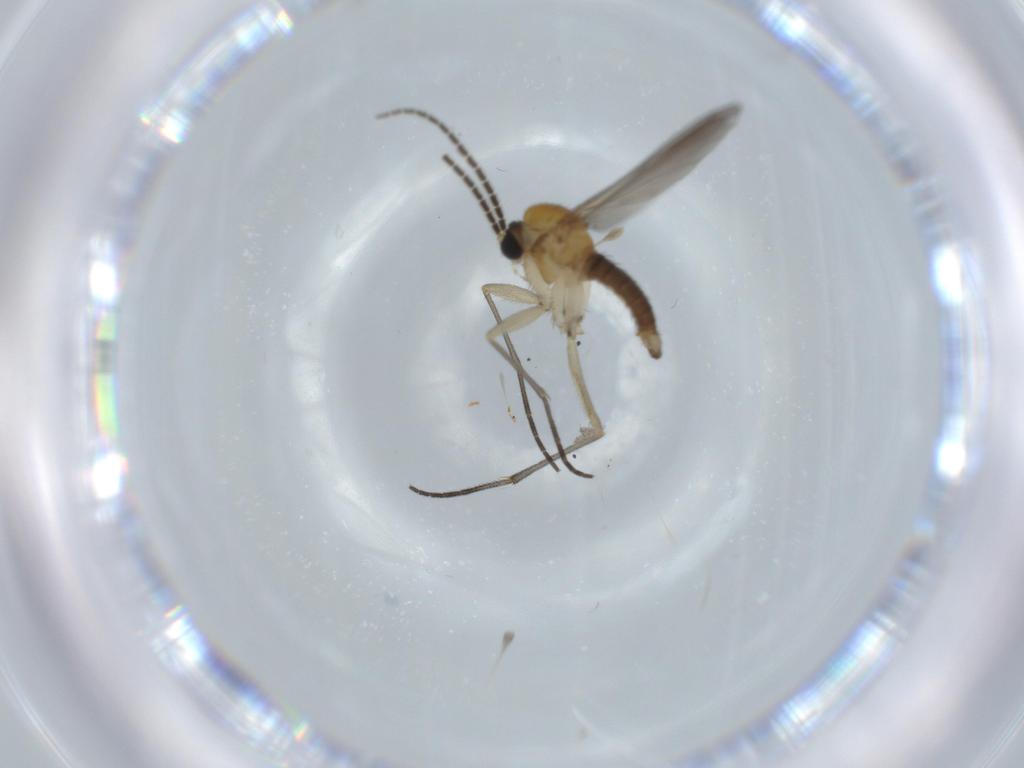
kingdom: Animalia
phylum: Arthropoda
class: Insecta
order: Diptera
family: Sciaridae
